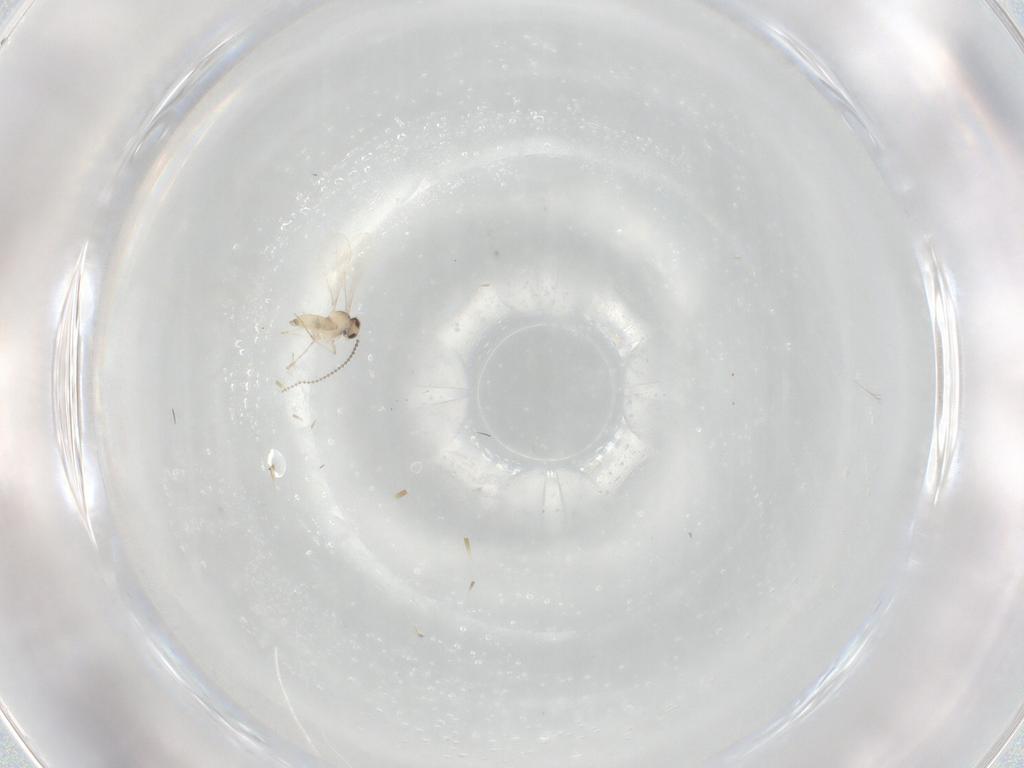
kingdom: Animalia
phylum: Arthropoda
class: Insecta
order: Diptera
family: Cecidomyiidae
